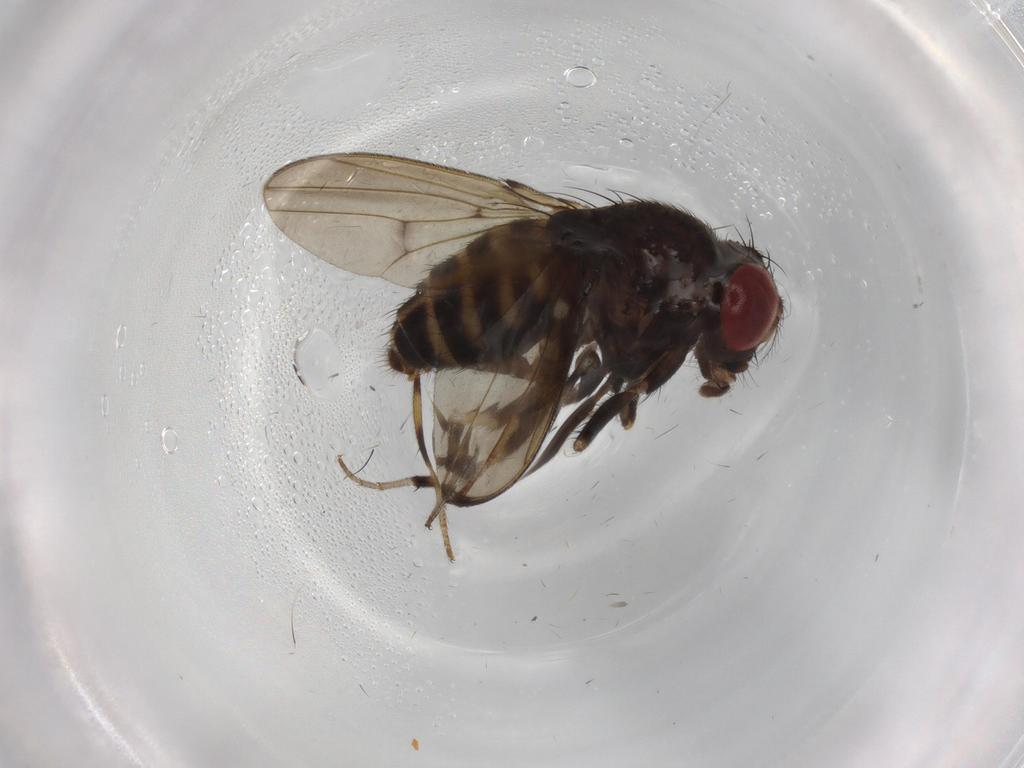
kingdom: Animalia
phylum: Arthropoda
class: Insecta
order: Diptera
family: Drosophilidae
